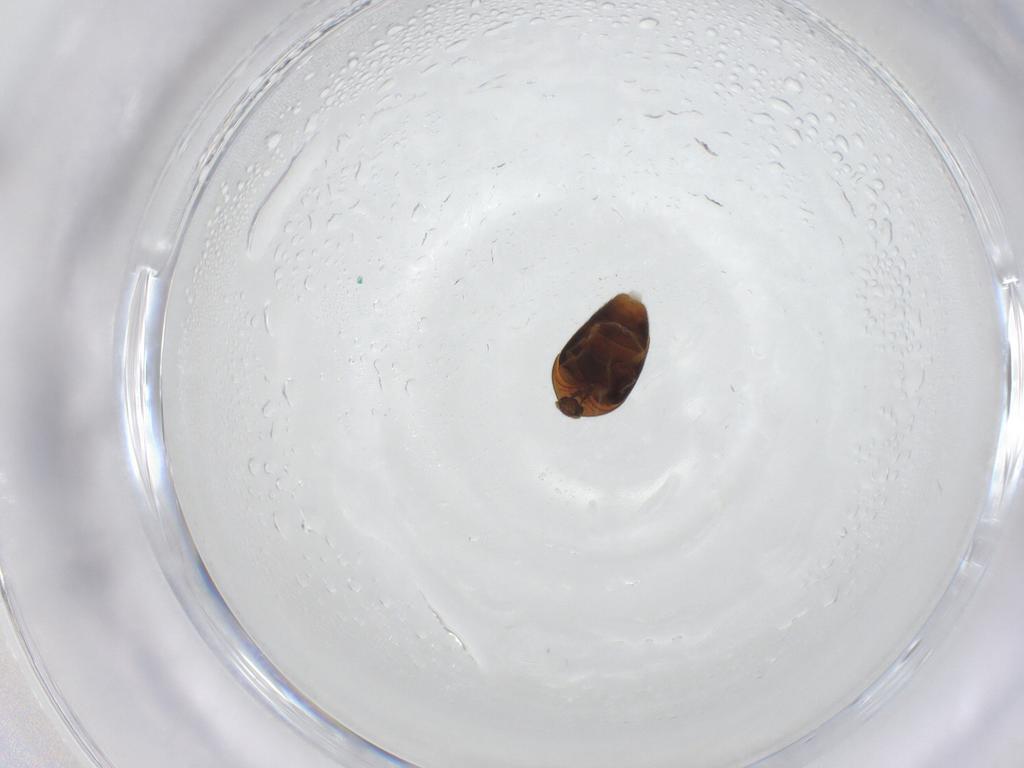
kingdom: Animalia
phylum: Arthropoda
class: Insecta
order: Coleoptera
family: Corylophidae
